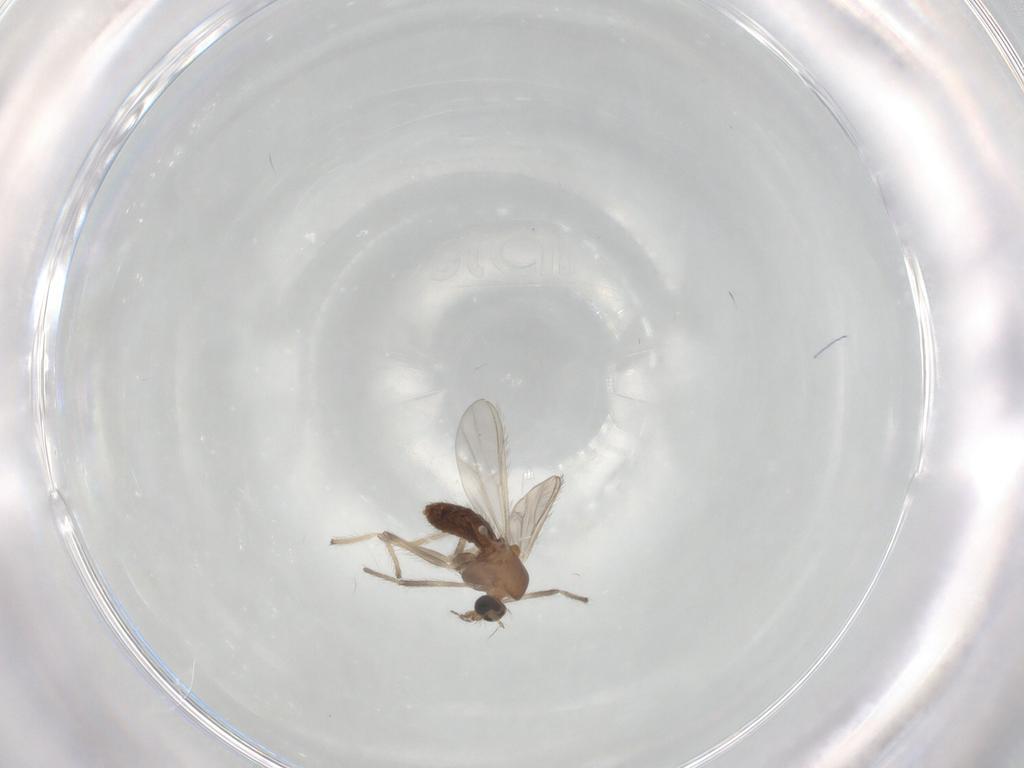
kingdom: Animalia
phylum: Arthropoda
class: Insecta
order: Diptera
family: Chironomidae
